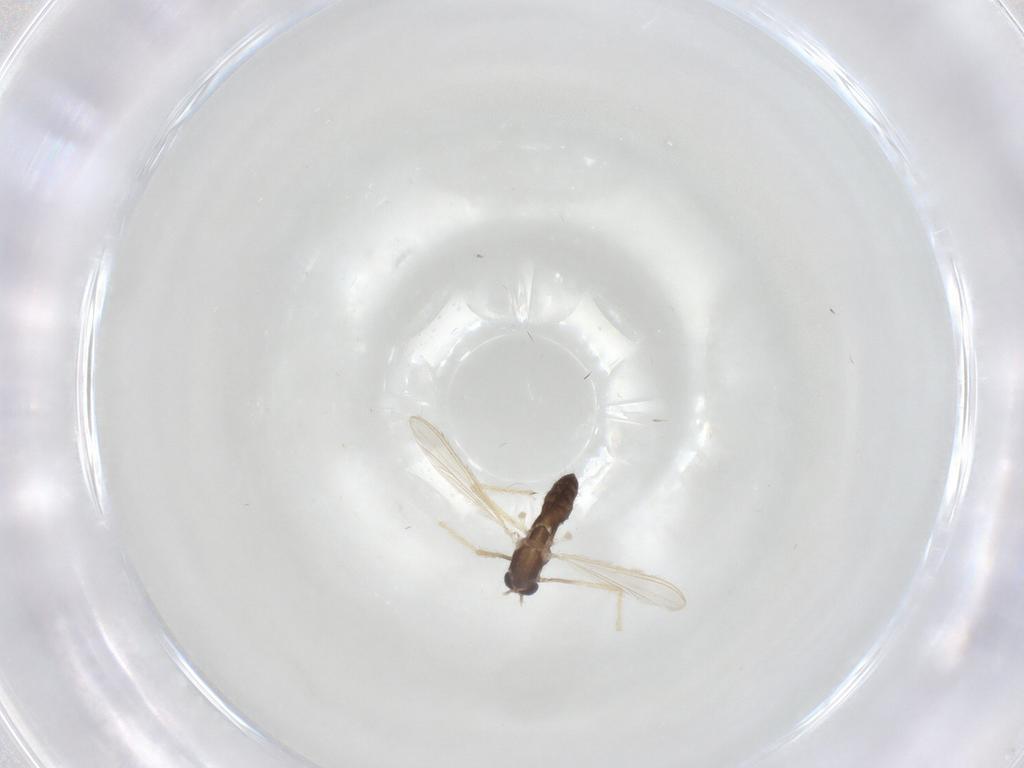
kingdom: Animalia
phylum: Arthropoda
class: Insecta
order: Diptera
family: Chironomidae
